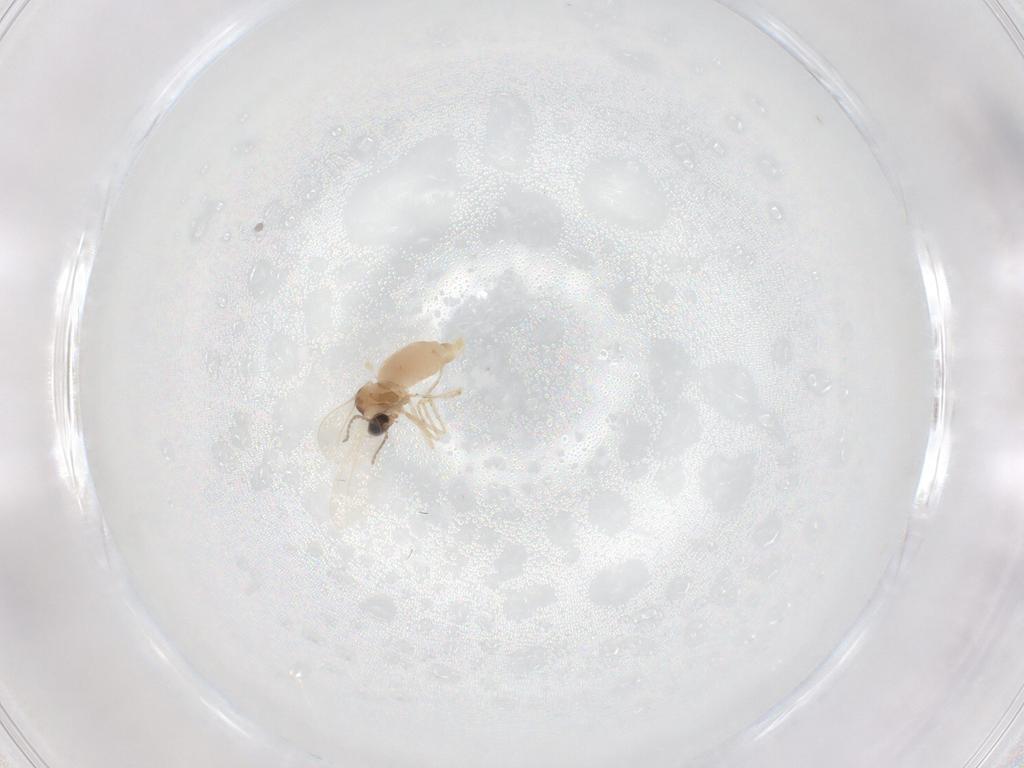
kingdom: Animalia
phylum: Arthropoda
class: Insecta
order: Diptera
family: Cecidomyiidae
